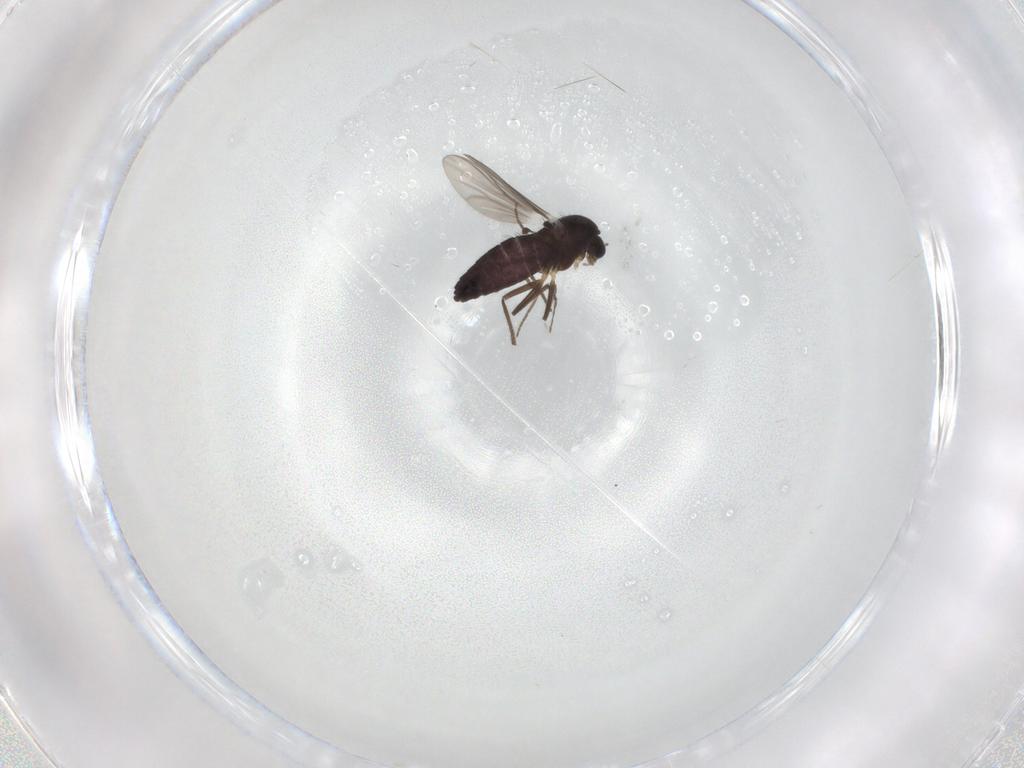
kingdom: Animalia
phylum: Arthropoda
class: Insecta
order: Diptera
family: Chironomidae
